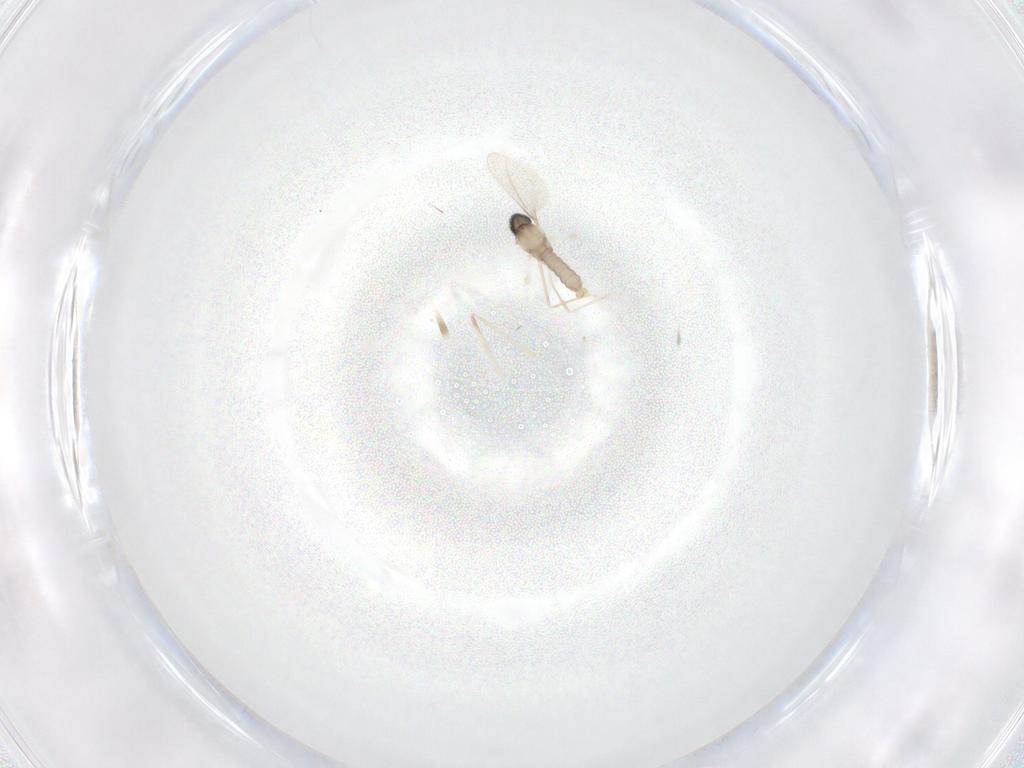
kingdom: Animalia
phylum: Arthropoda
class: Insecta
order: Diptera
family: Cecidomyiidae
